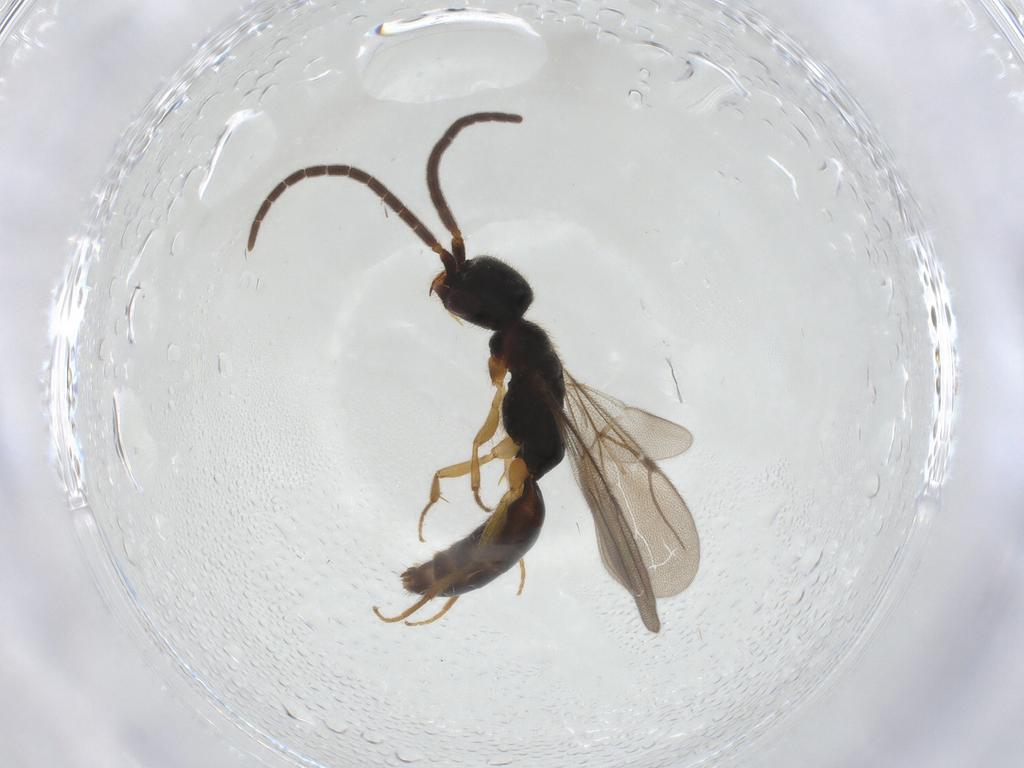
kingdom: Animalia
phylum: Arthropoda
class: Insecta
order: Hymenoptera
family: Bethylidae
